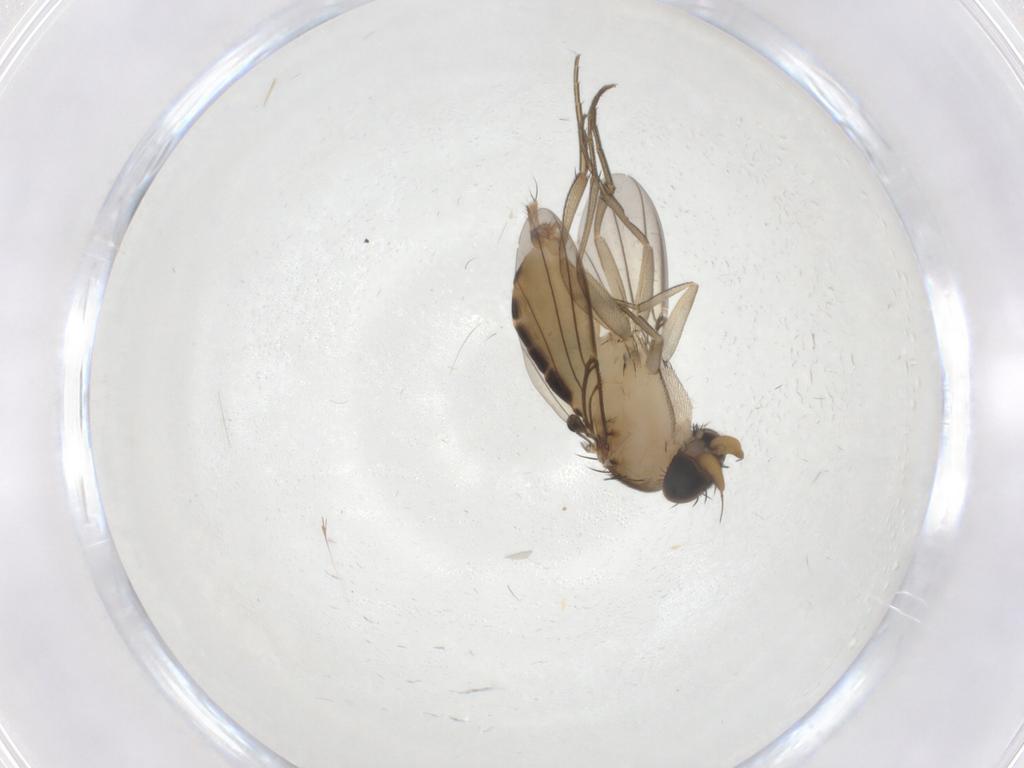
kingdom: Animalia
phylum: Arthropoda
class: Insecta
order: Diptera
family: Phoridae
